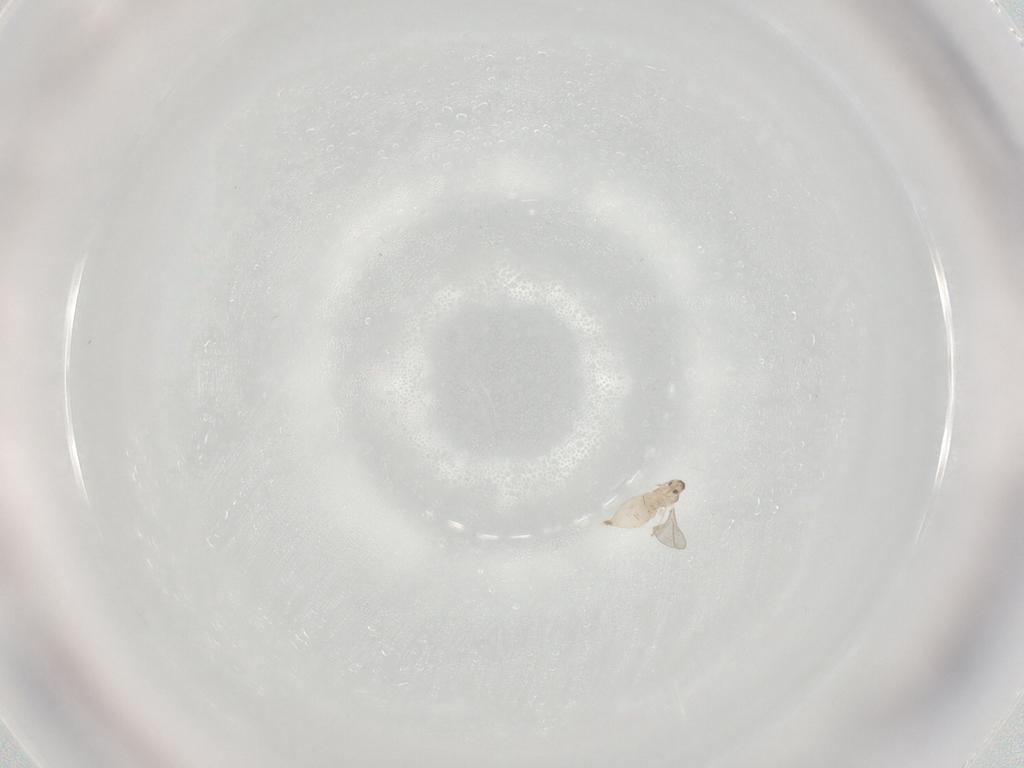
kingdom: Animalia
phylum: Arthropoda
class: Insecta
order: Diptera
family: Cecidomyiidae
